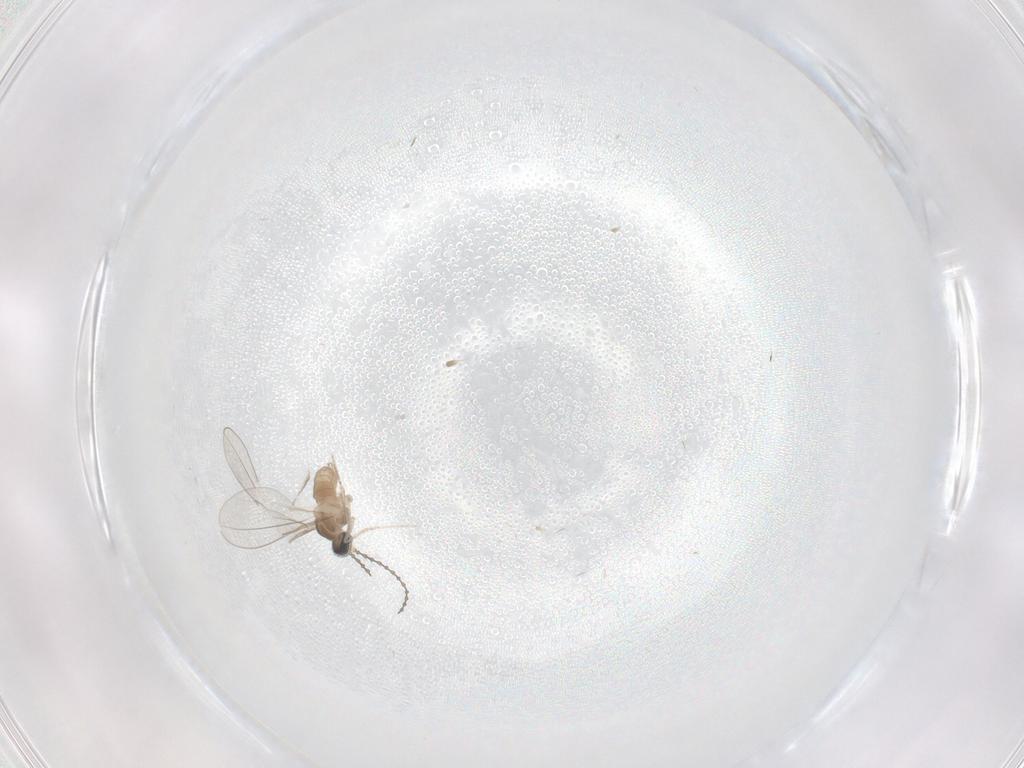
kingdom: Animalia
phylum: Arthropoda
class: Insecta
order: Diptera
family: Cecidomyiidae
